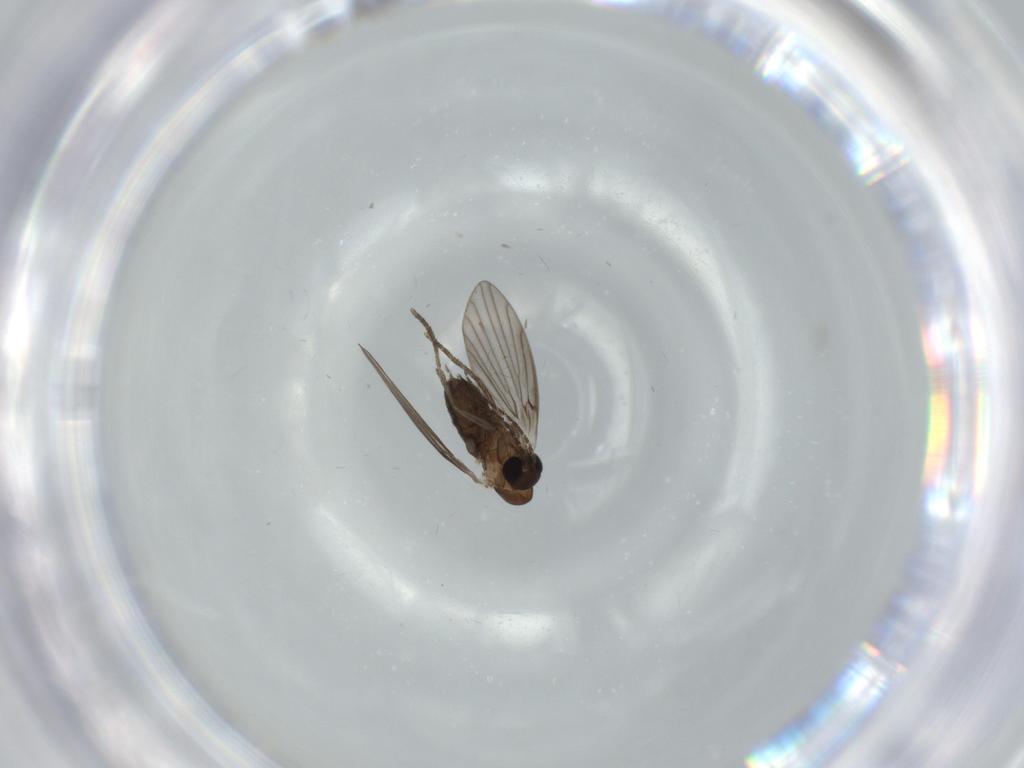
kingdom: Animalia
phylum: Arthropoda
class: Insecta
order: Diptera
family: Psychodidae
